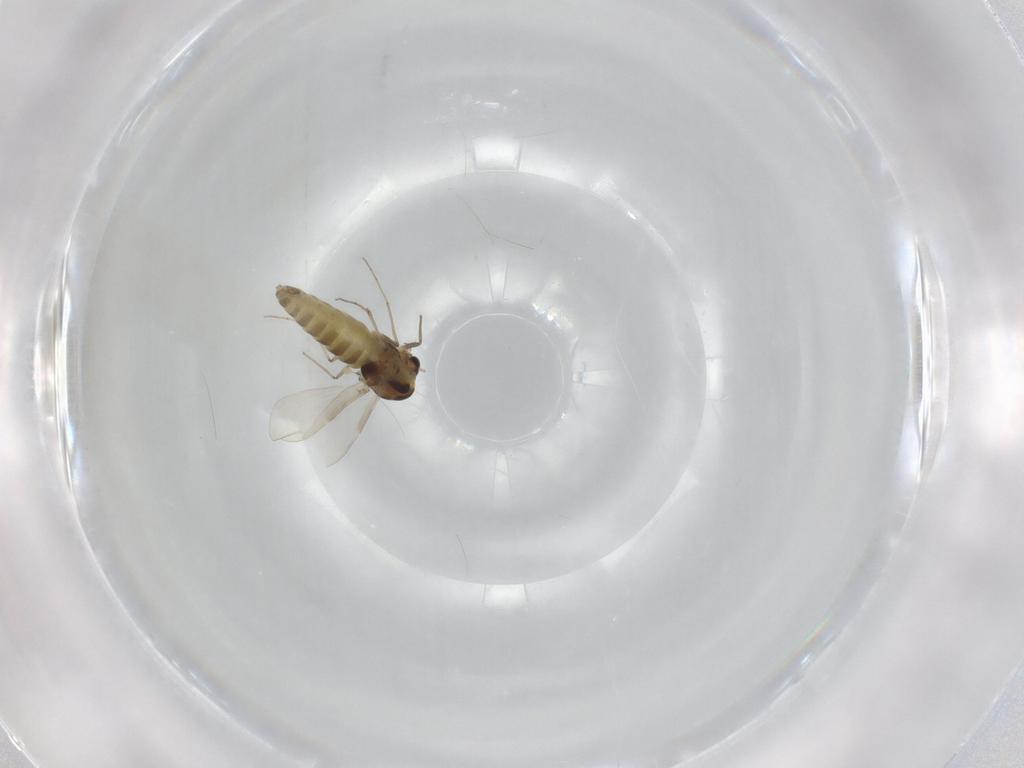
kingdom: Animalia
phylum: Arthropoda
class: Insecta
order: Diptera
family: Chironomidae
